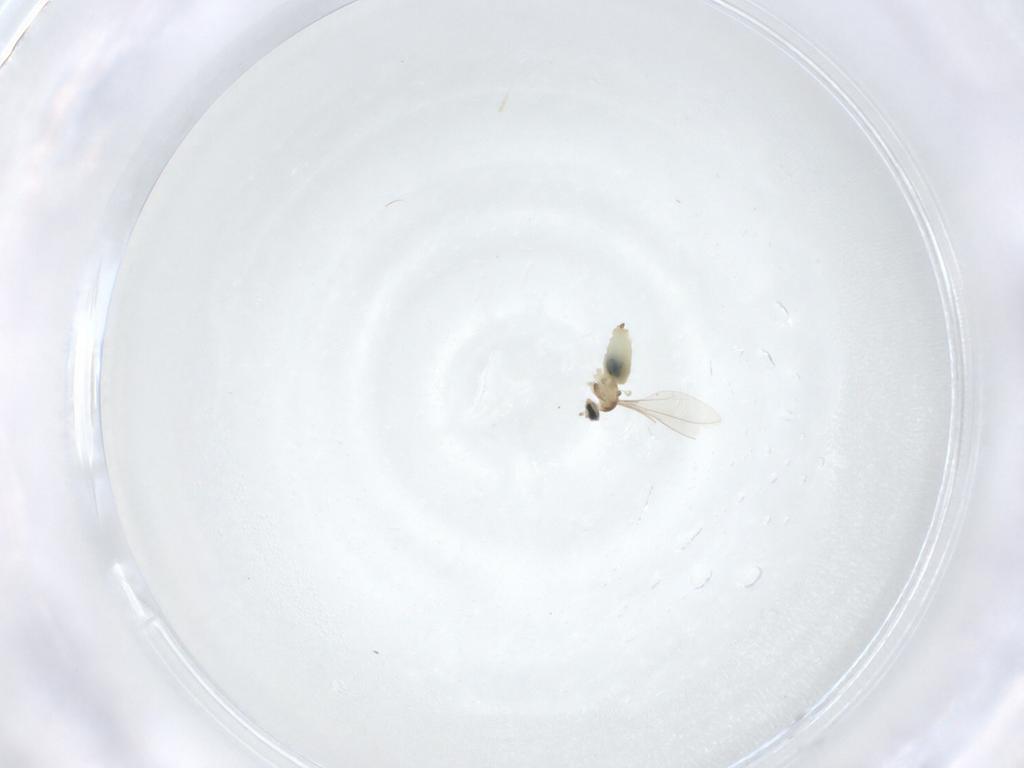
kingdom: Animalia
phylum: Arthropoda
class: Insecta
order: Diptera
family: Cecidomyiidae
